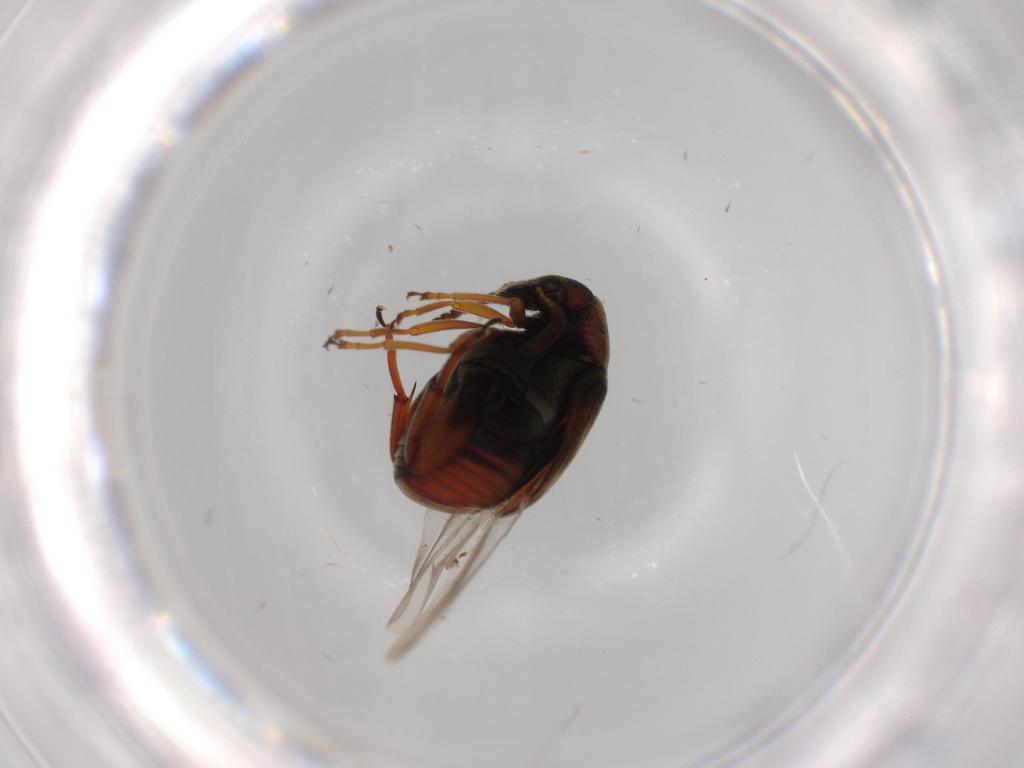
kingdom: Animalia
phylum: Arthropoda
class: Insecta
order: Coleoptera
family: Chrysomelidae
